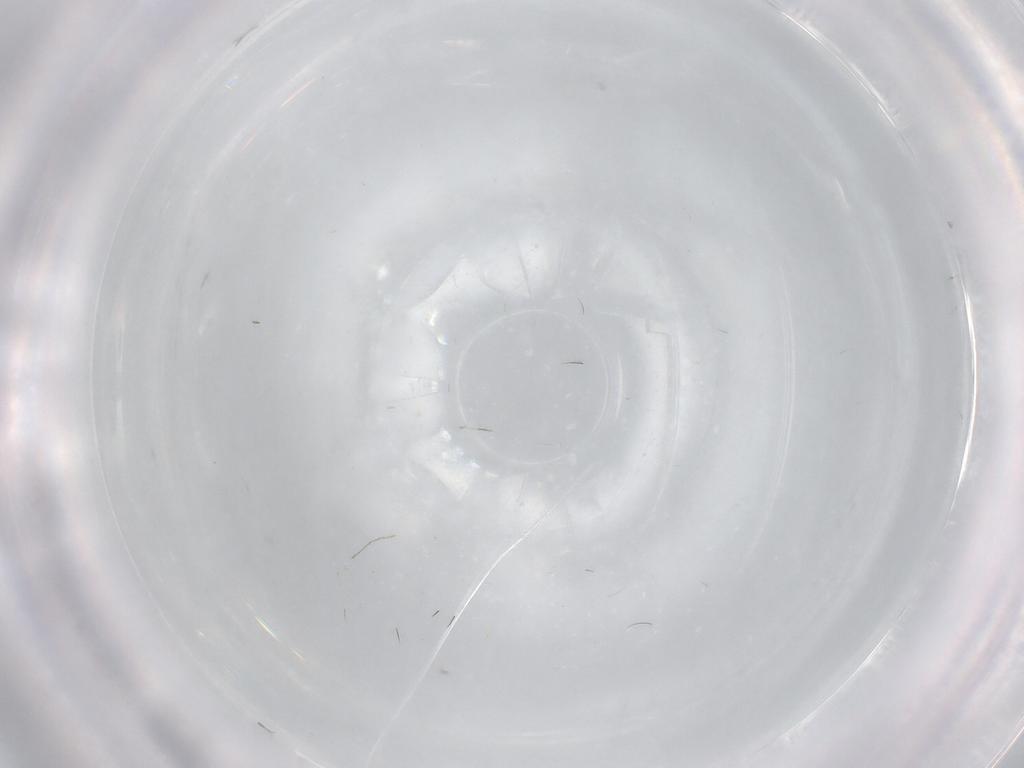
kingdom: Animalia
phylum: Arthropoda
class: Insecta
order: Diptera
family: Cecidomyiidae
